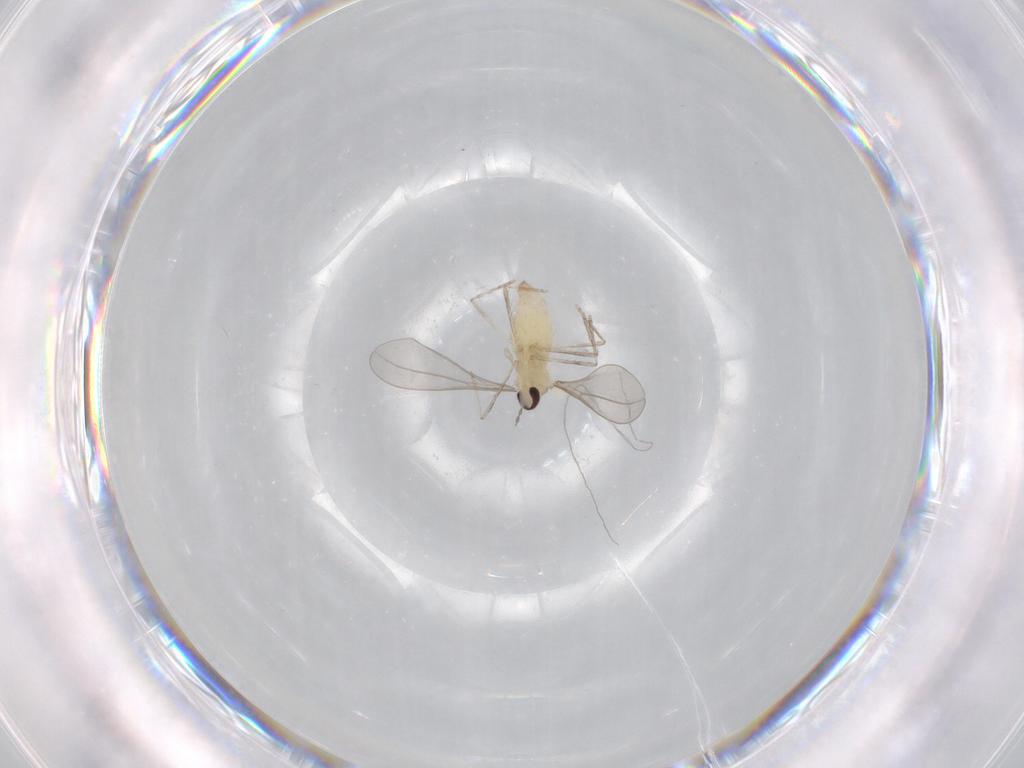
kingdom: Animalia
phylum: Arthropoda
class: Insecta
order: Diptera
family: Cecidomyiidae
